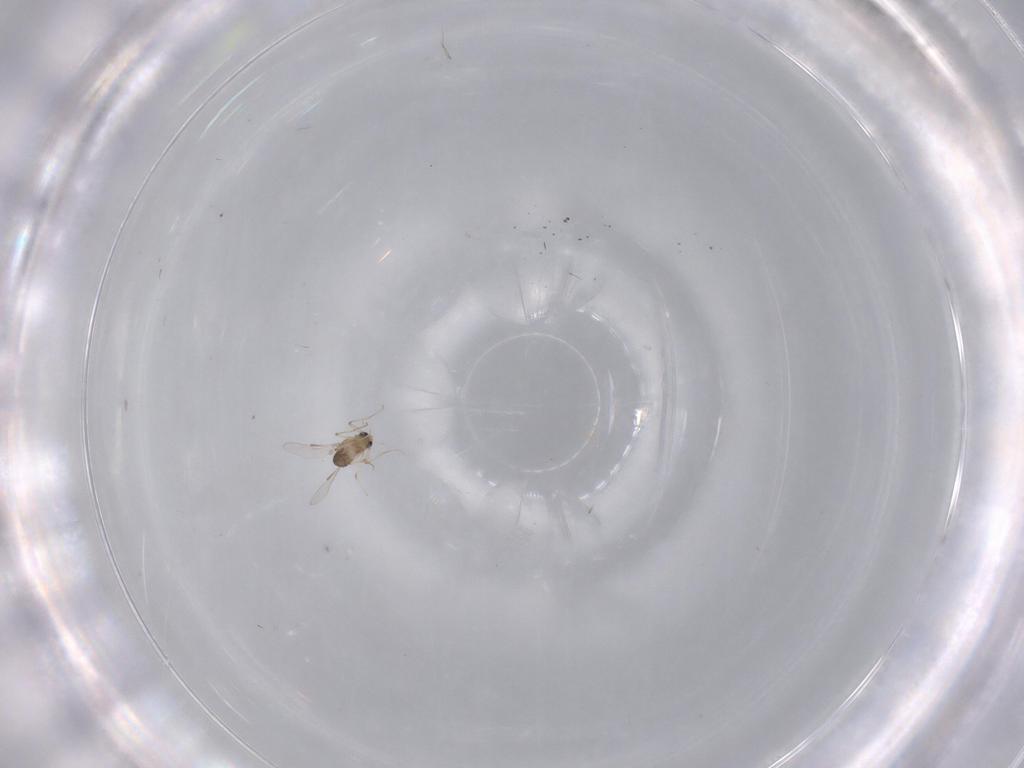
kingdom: Animalia
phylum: Arthropoda
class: Insecta
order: Diptera
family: Chironomidae
